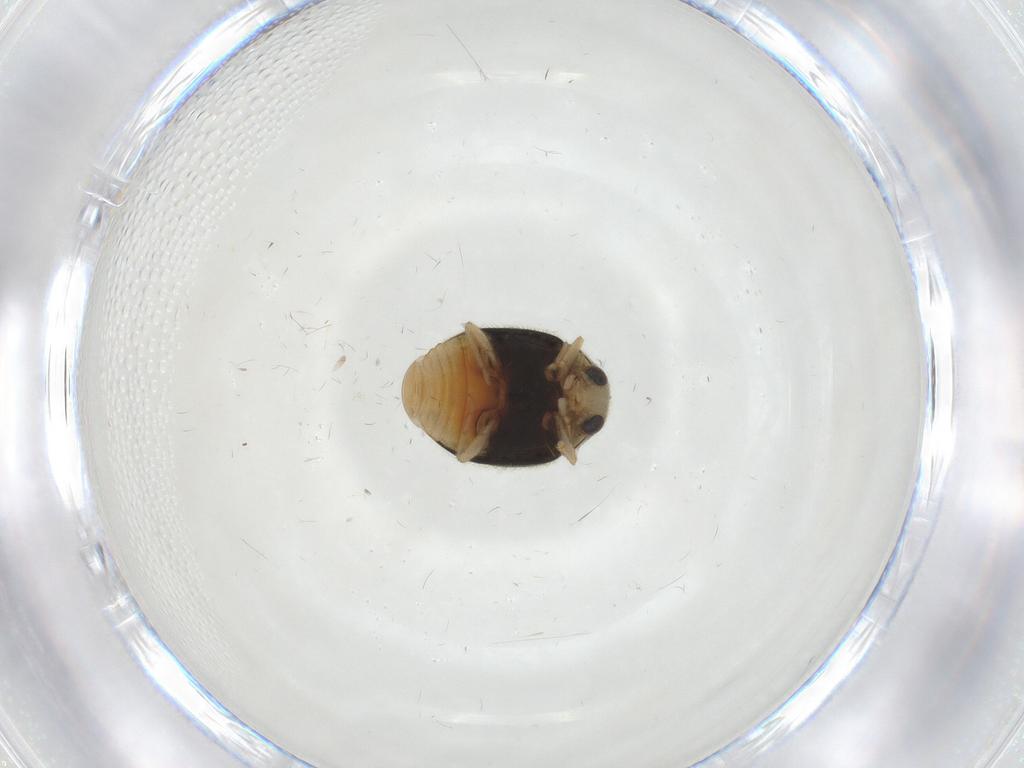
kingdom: Animalia
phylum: Arthropoda
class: Insecta
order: Coleoptera
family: Coccinellidae
